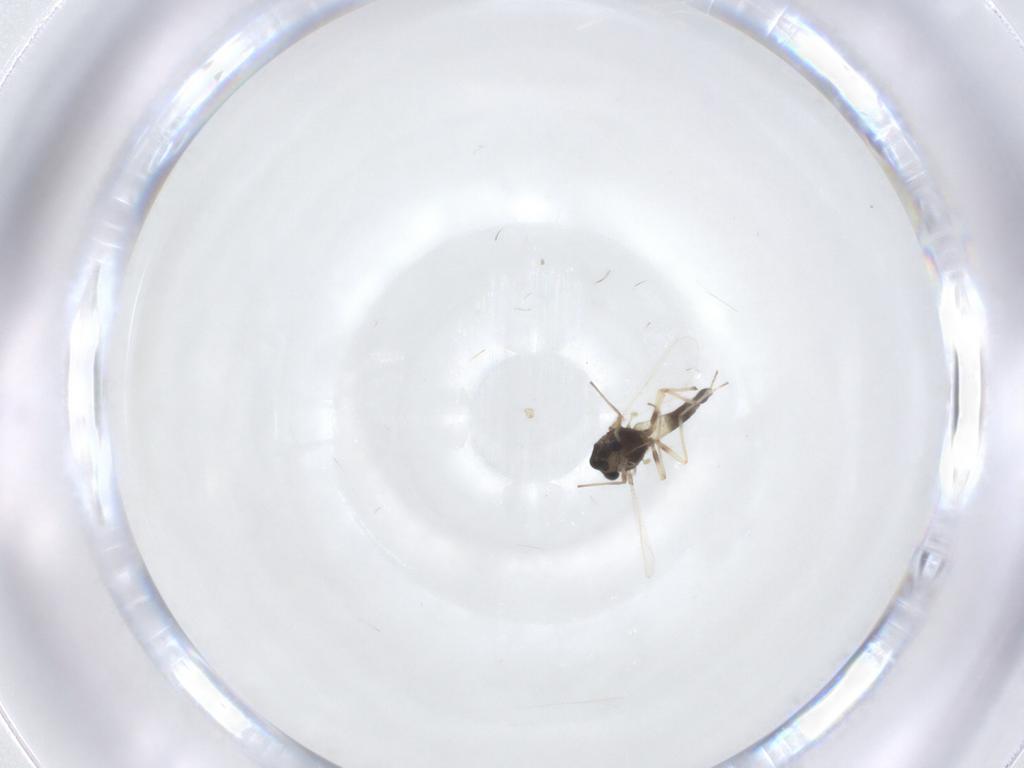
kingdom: Animalia
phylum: Arthropoda
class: Insecta
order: Diptera
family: Chironomidae
